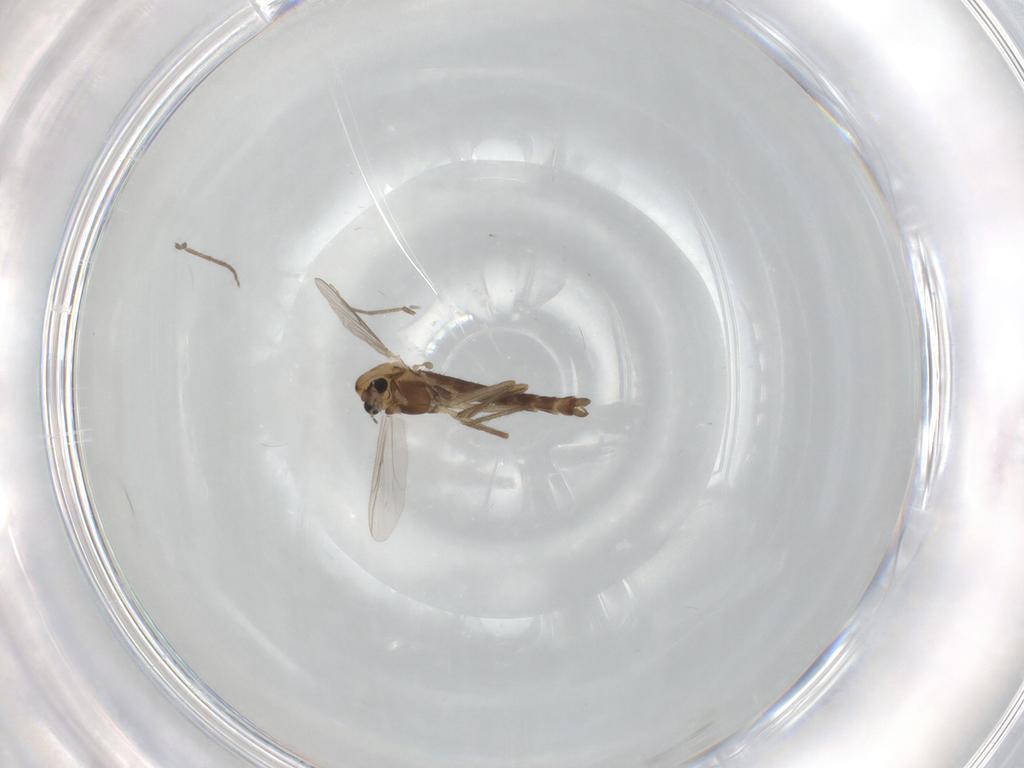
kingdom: Animalia
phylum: Arthropoda
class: Insecta
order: Diptera
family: Chironomidae
